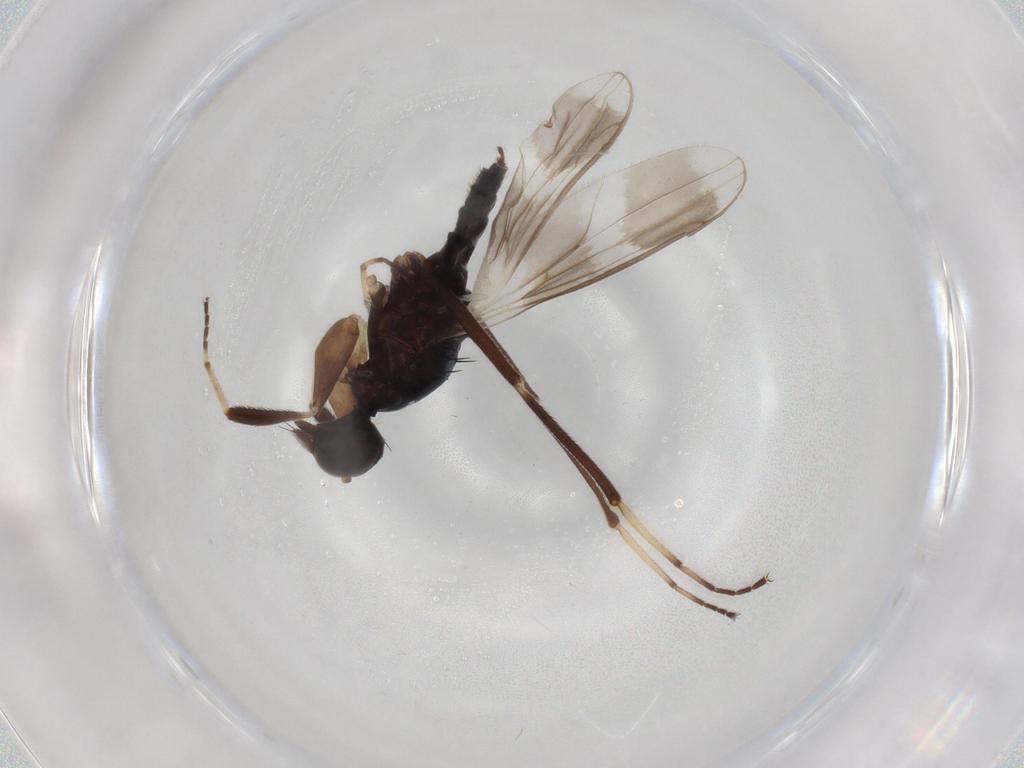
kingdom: Animalia
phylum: Arthropoda
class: Insecta
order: Diptera
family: Hybotidae
